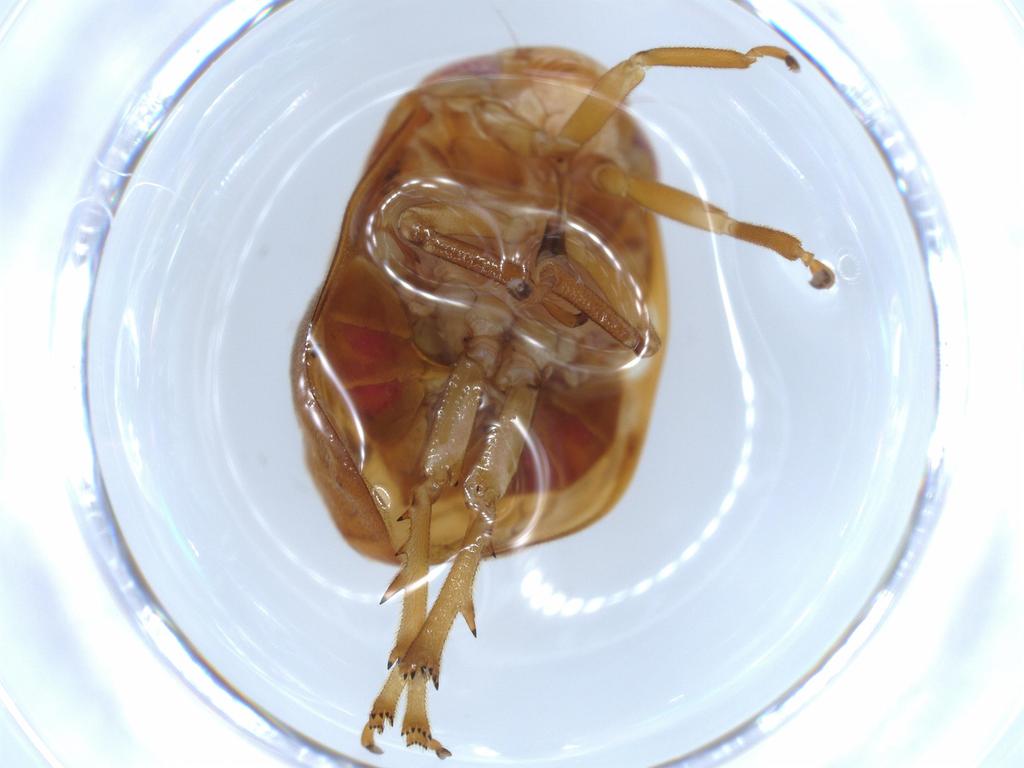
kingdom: Animalia
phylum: Arthropoda
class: Insecta
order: Hemiptera
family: Clastopteridae
